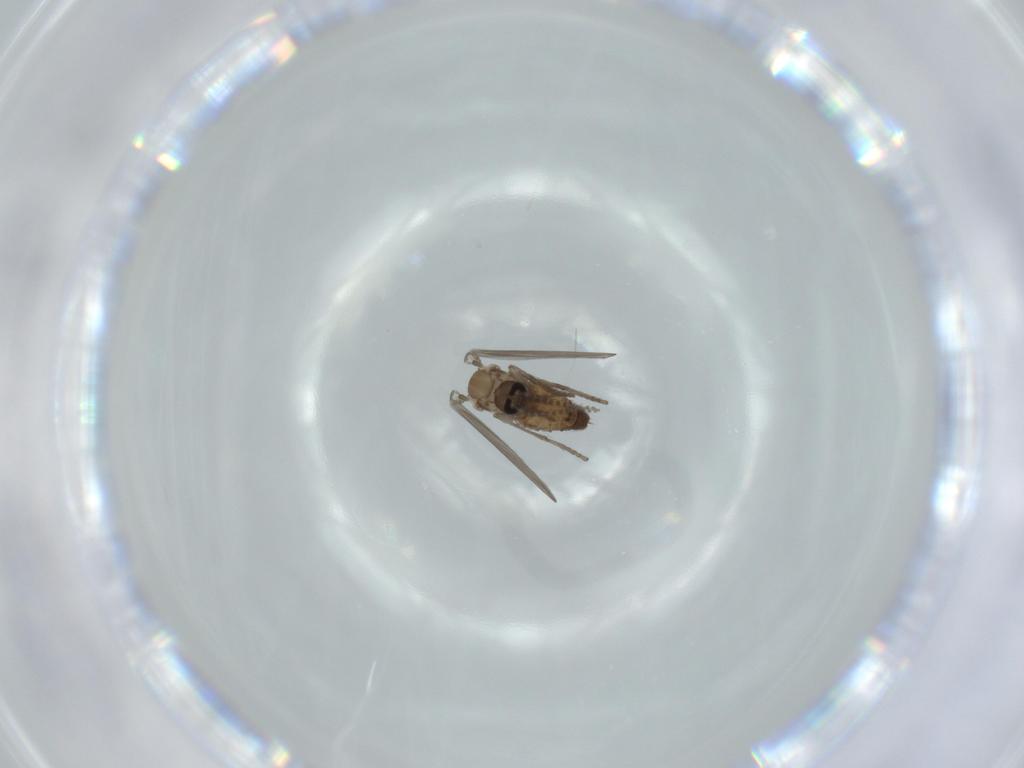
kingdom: Animalia
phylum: Arthropoda
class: Insecta
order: Diptera
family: Psychodidae
